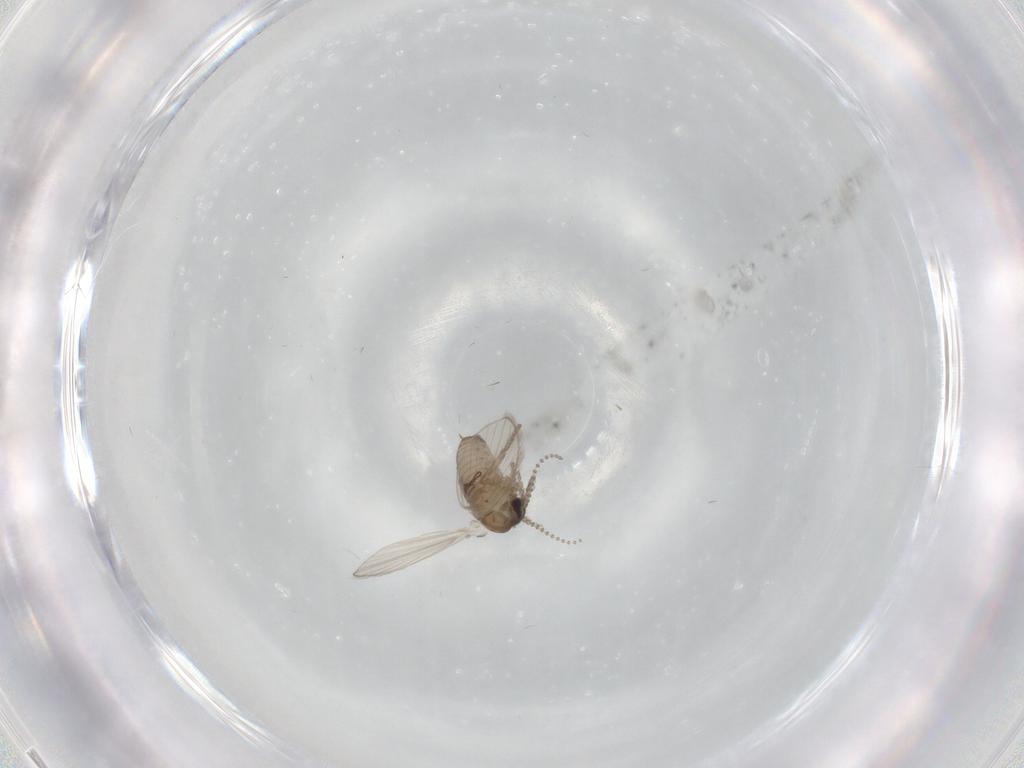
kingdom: Animalia
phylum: Arthropoda
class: Insecta
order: Diptera
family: Psychodidae
